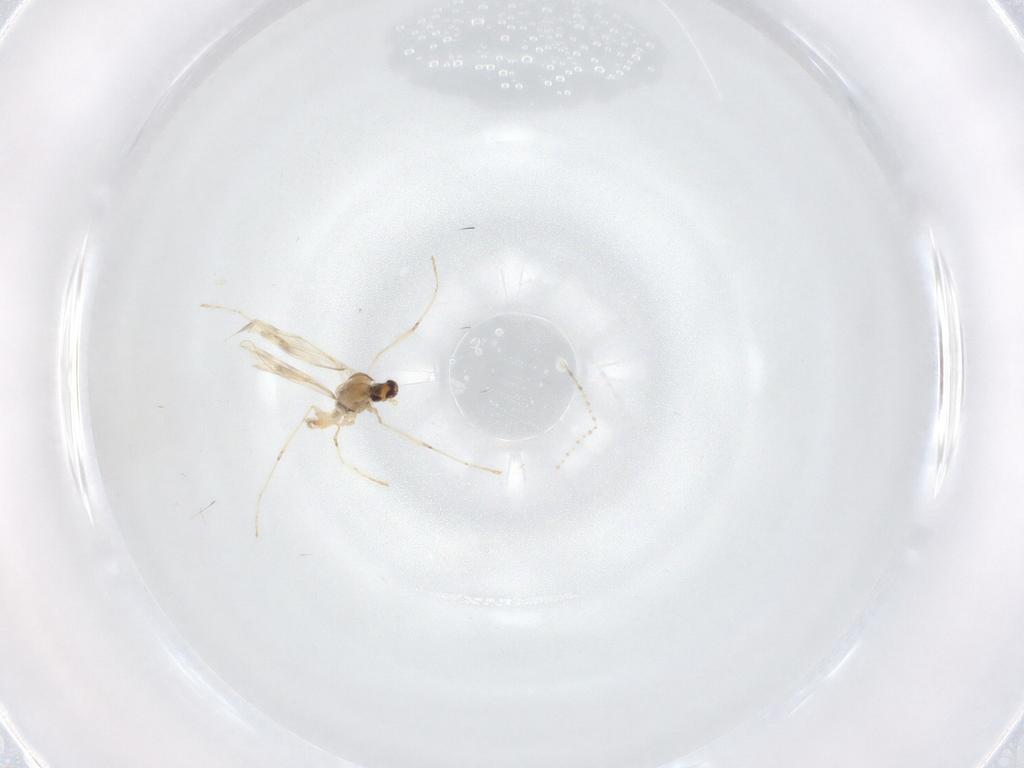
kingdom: Animalia
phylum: Arthropoda
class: Insecta
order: Diptera
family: Cecidomyiidae
